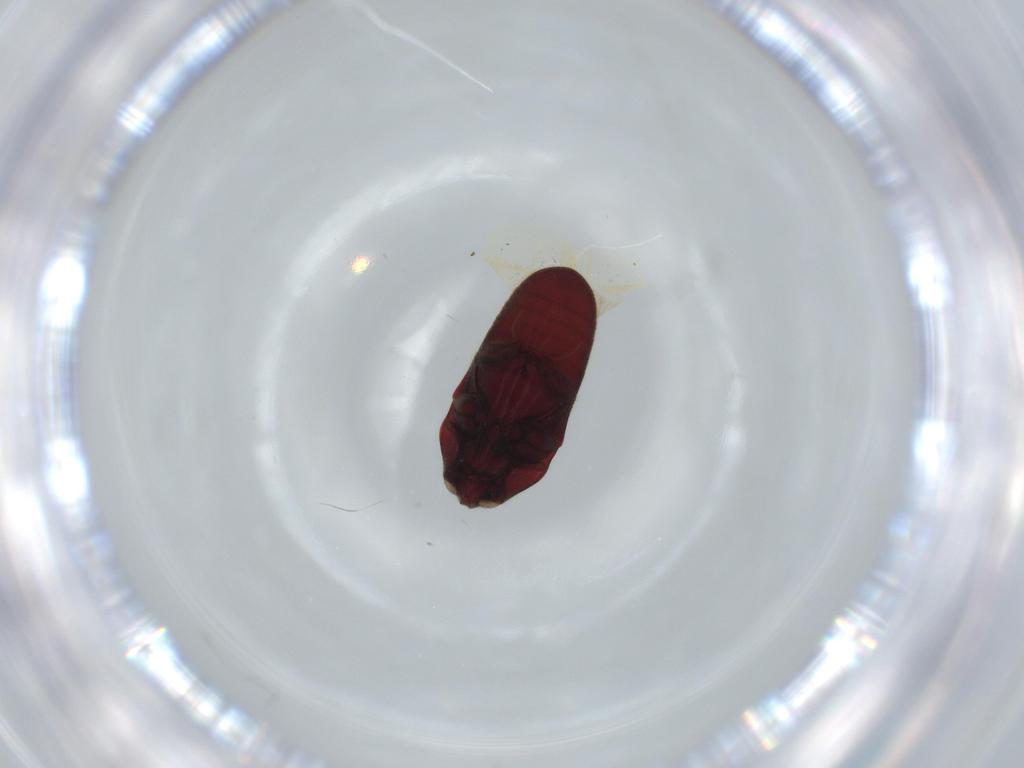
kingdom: Animalia
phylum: Arthropoda
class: Insecta
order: Coleoptera
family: Throscidae
